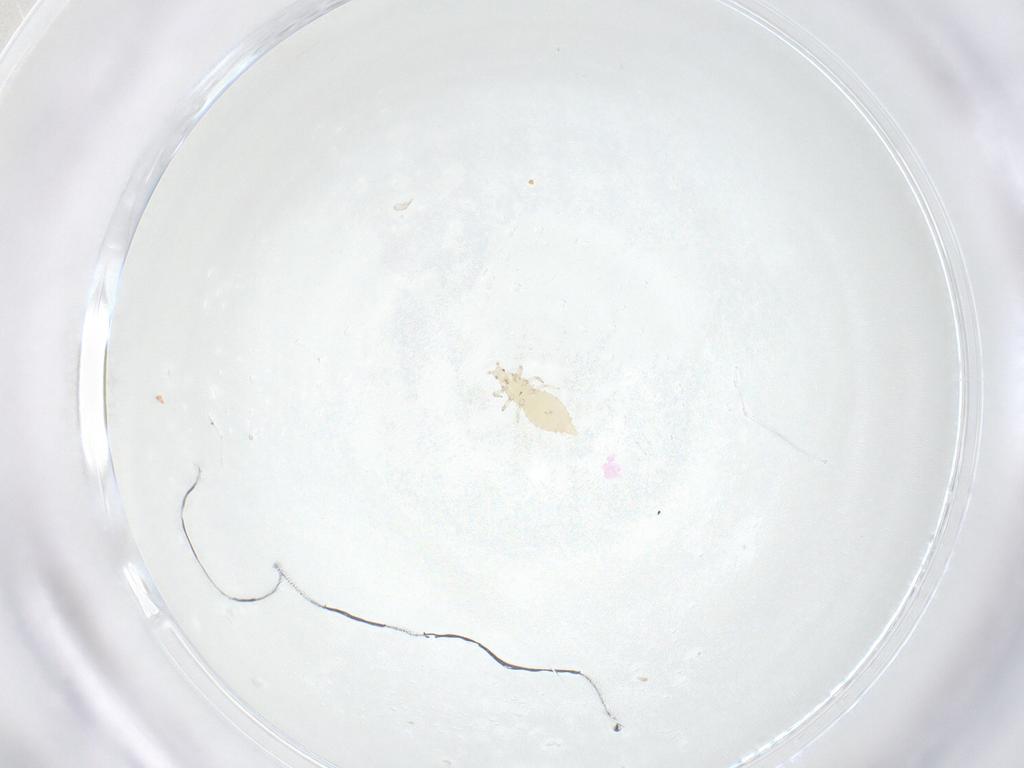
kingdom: Animalia
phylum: Arthropoda
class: Insecta
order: Thysanoptera
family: Thripidae
